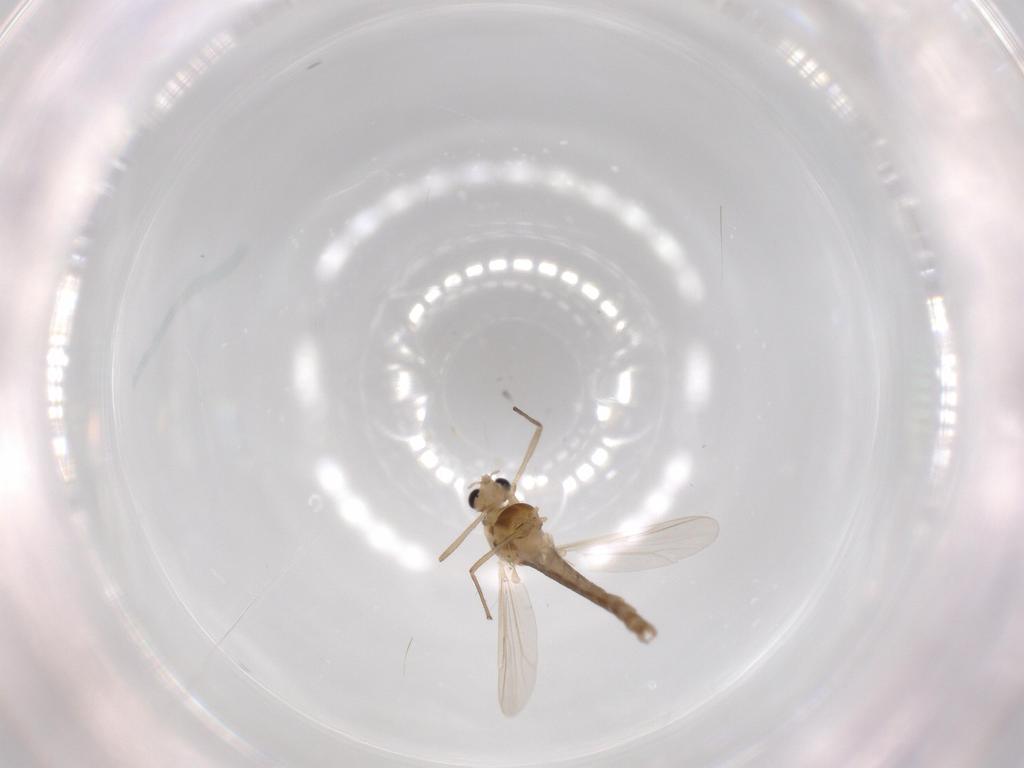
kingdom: Animalia
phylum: Arthropoda
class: Insecta
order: Diptera
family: Chironomidae
